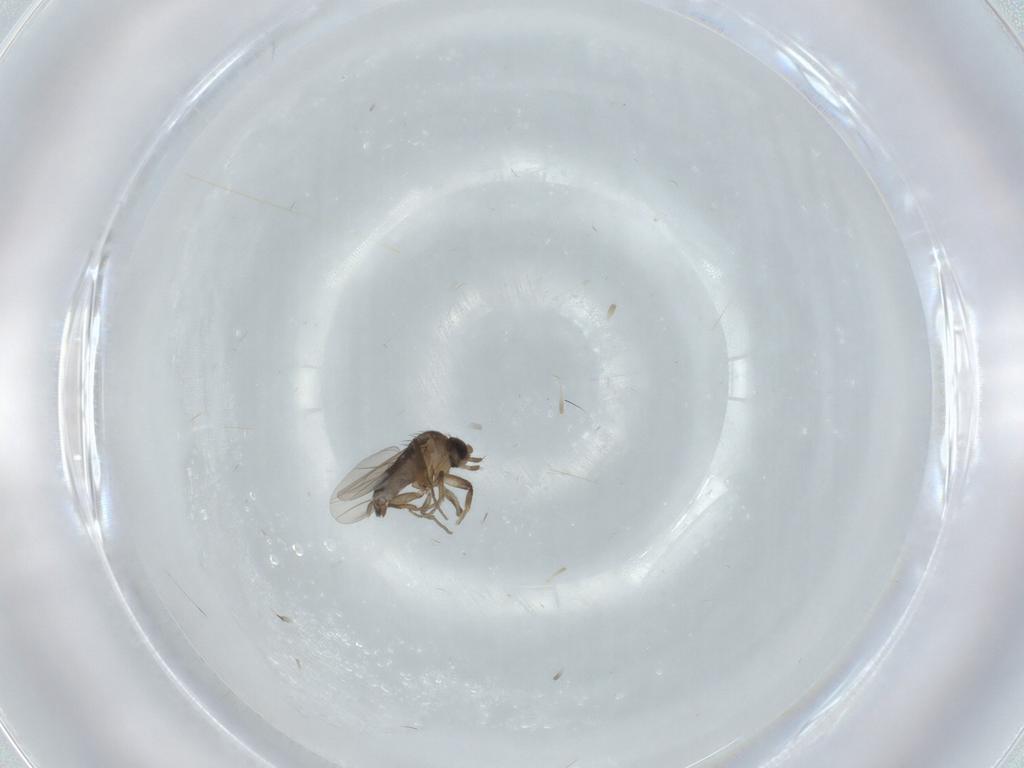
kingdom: Animalia
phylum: Arthropoda
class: Insecta
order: Diptera
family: Phoridae
